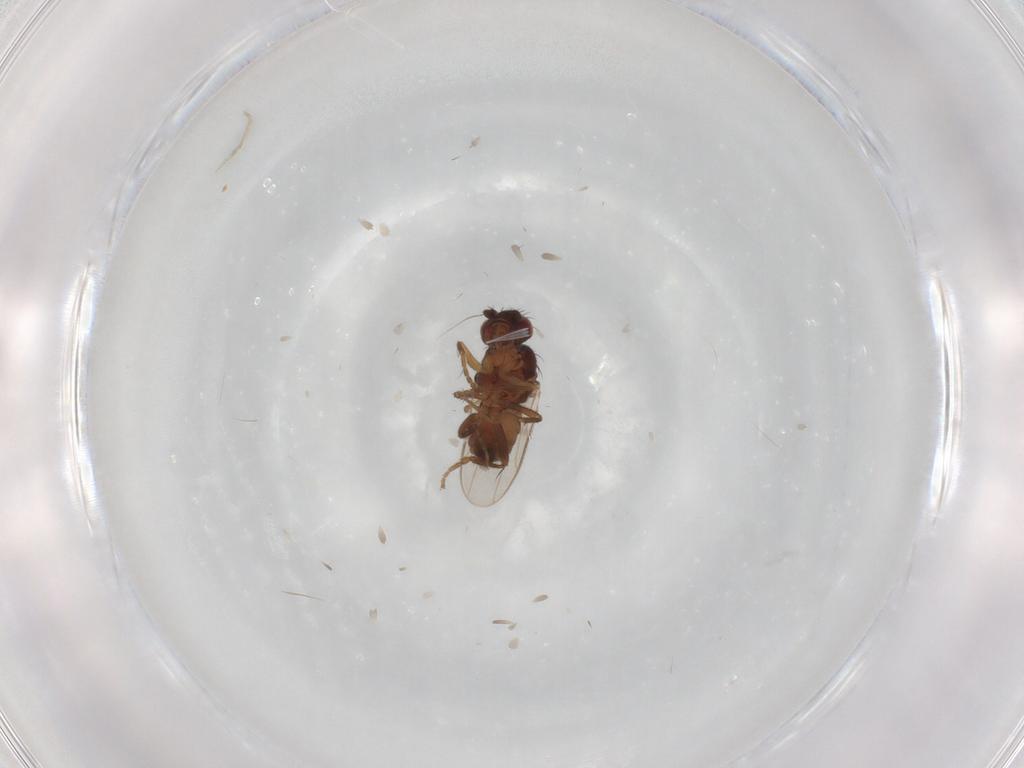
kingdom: Animalia
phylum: Arthropoda
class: Insecta
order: Diptera
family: Sphaeroceridae
